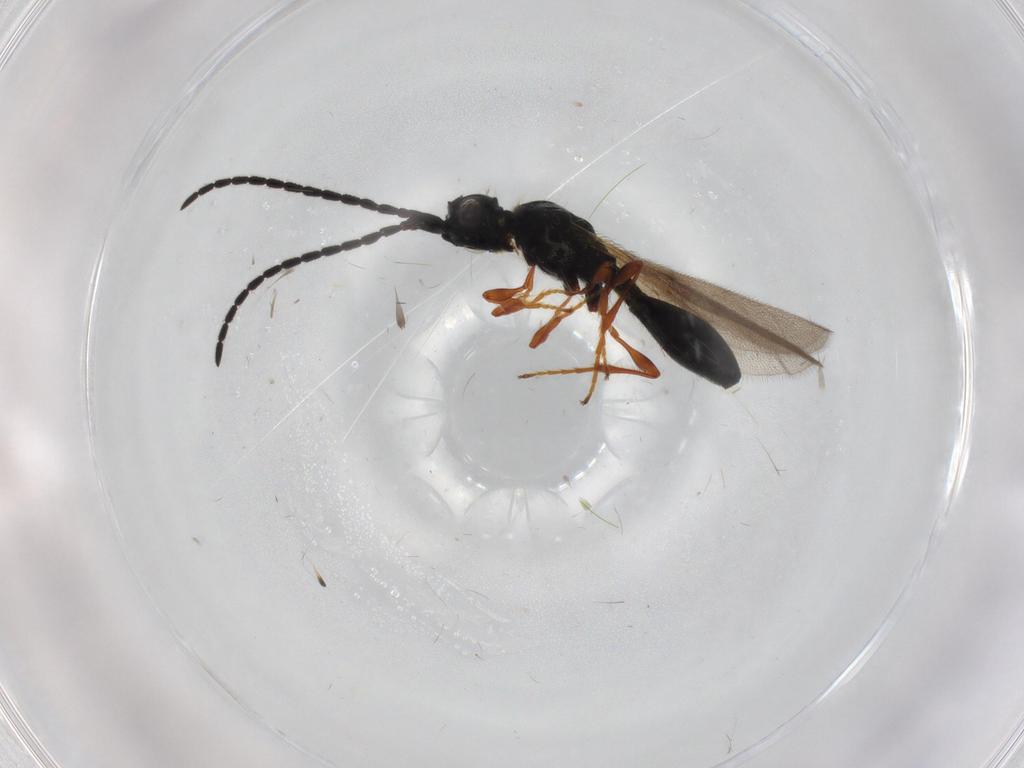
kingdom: Animalia
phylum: Arthropoda
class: Insecta
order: Hymenoptera
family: Diapriidae
